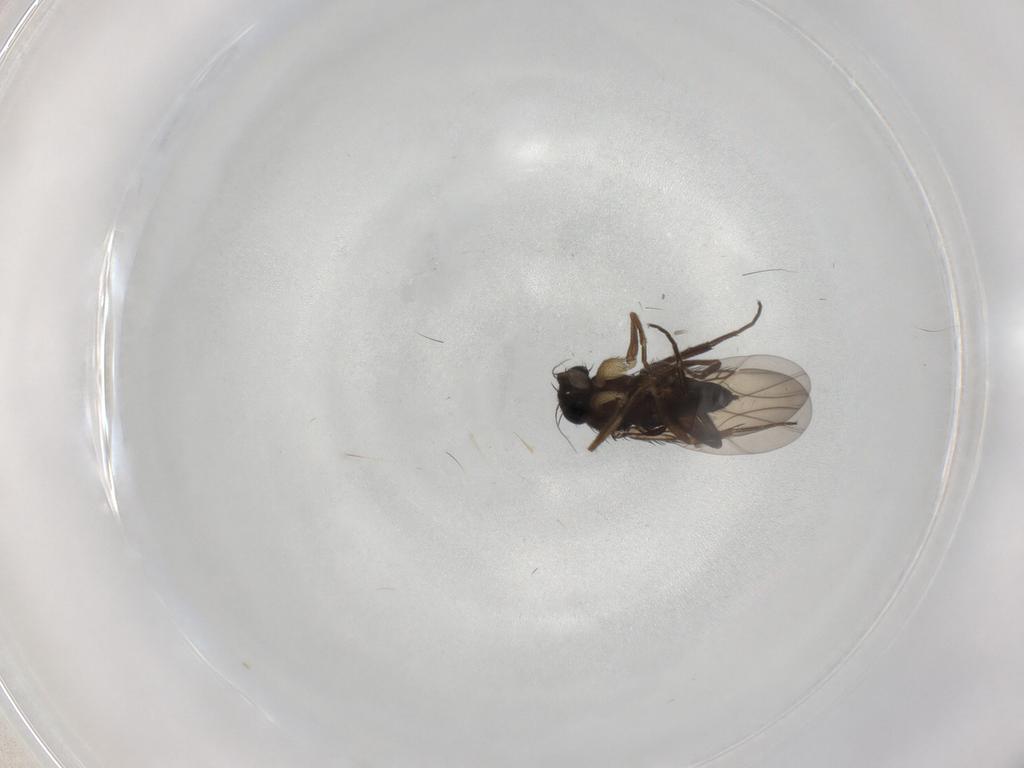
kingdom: Animalia
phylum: Arthropoda
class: Insecta
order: Diptera
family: Phoridae
